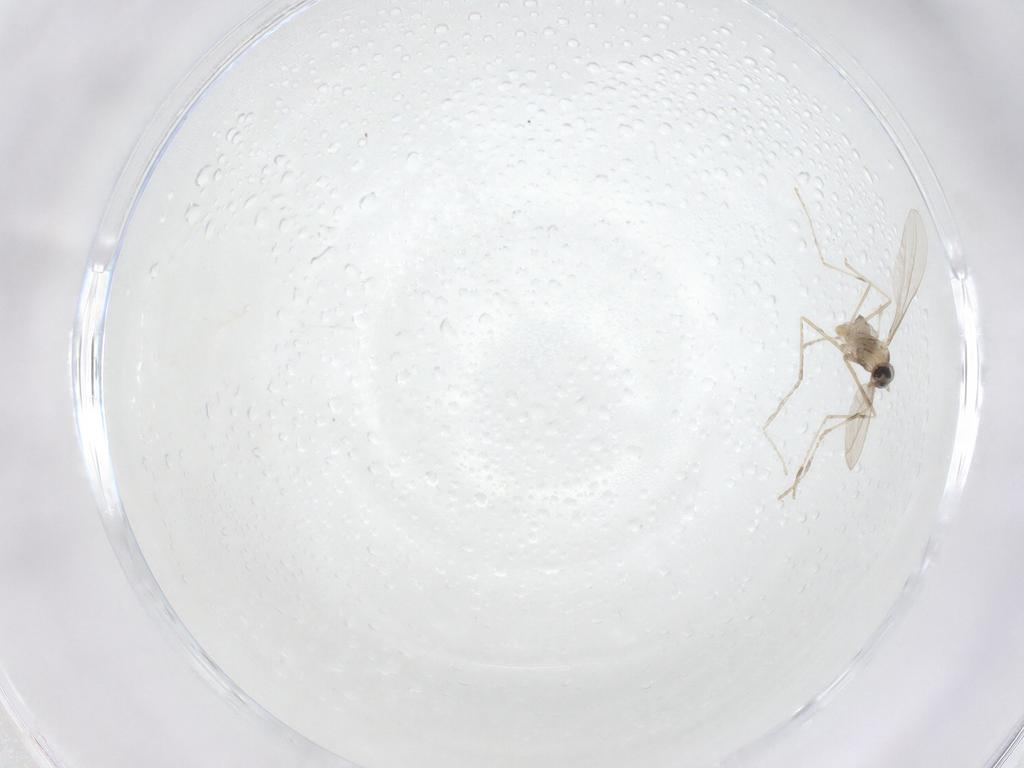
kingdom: Animalia
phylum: Arthropoda
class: Insecta
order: Diptera
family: Cecidomyiidae
